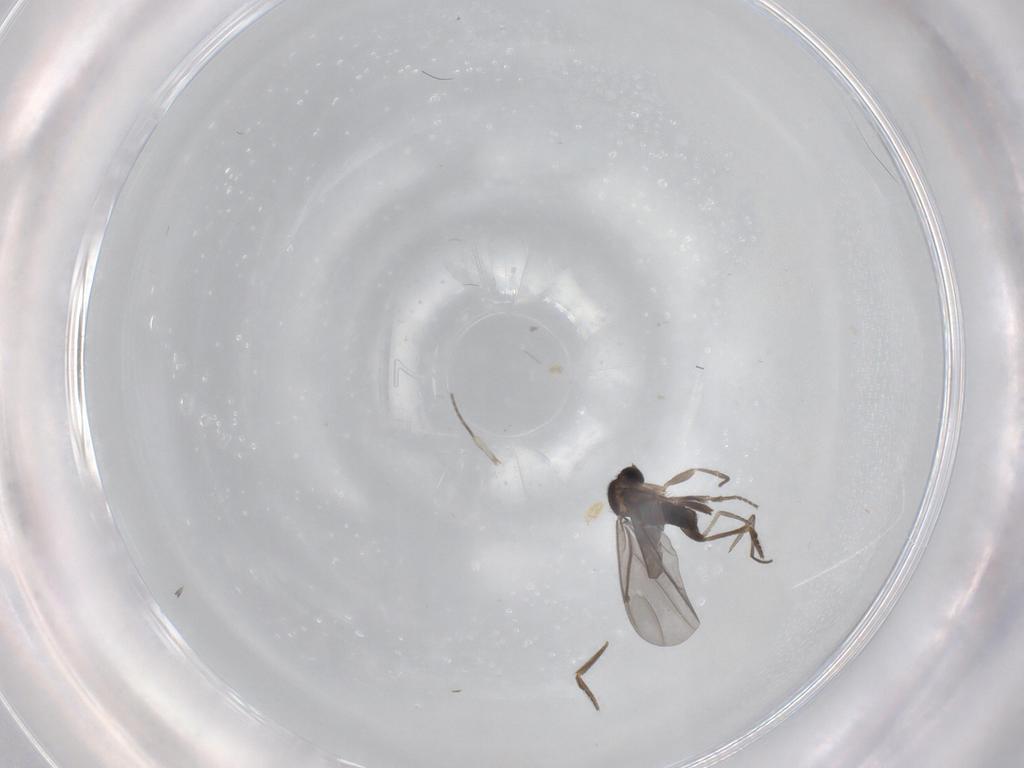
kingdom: Animalia
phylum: Arthropoda
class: Insecta
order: Diptera
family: Phoridae
